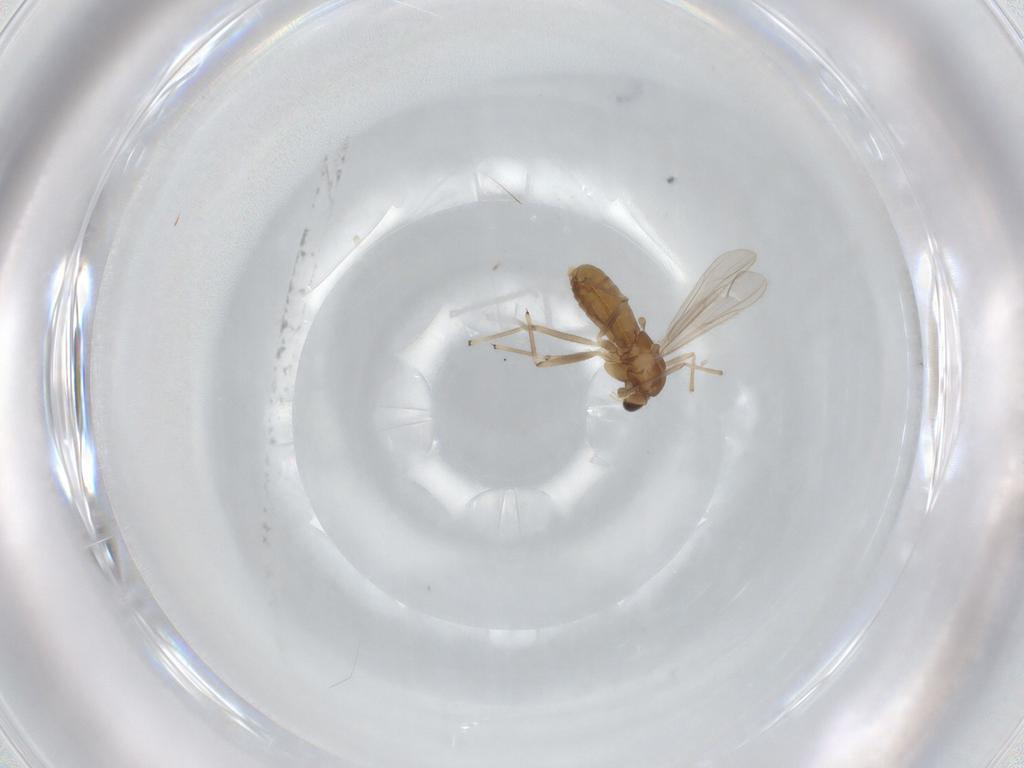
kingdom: Animalia
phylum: Arthropoda
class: Insecta
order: Diptera
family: Chironomidae
